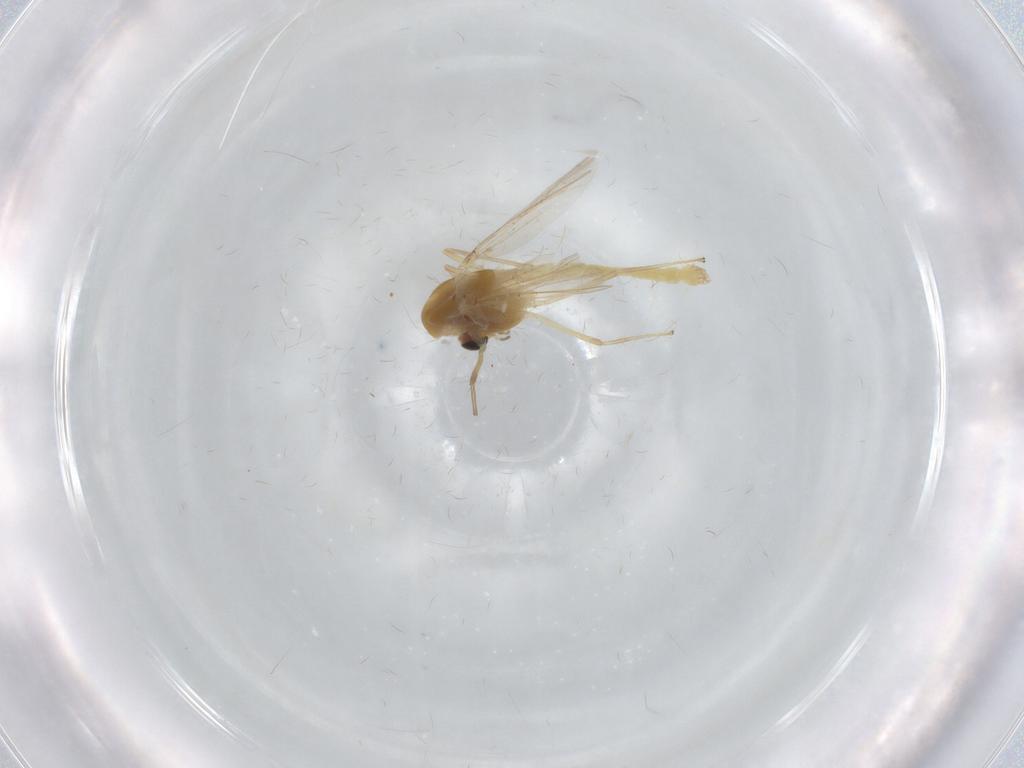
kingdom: Animalia
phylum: Arthropoda
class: Insecta
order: Diptera
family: Chironomidae
